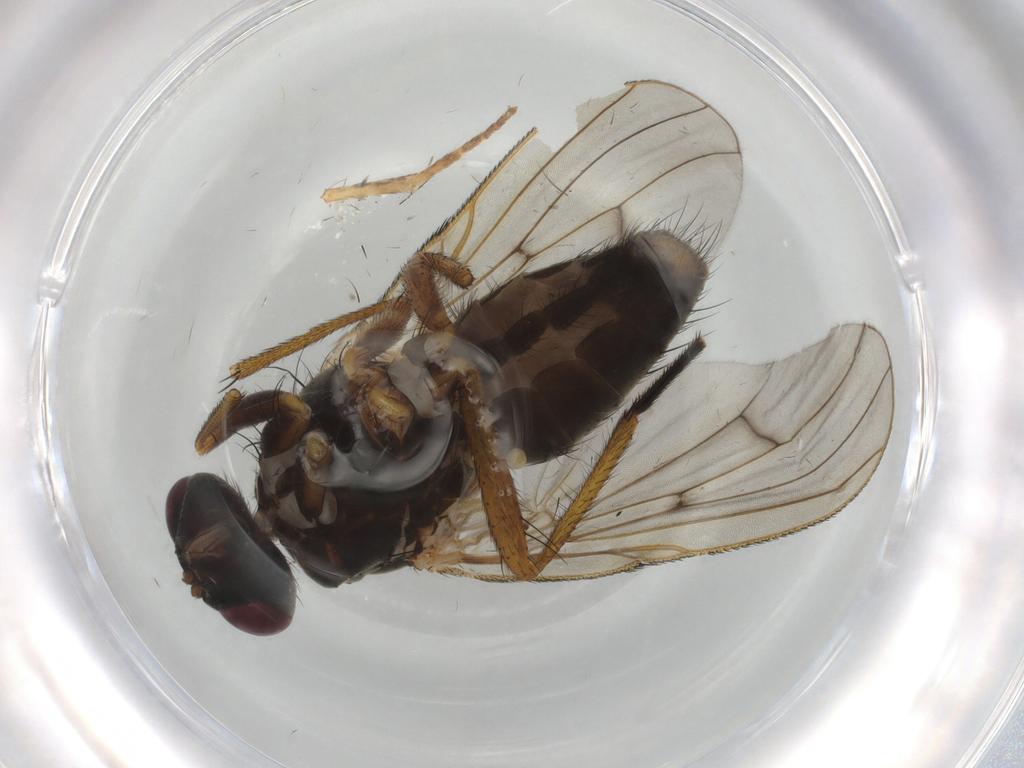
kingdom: Animalia
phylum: Arthropoda
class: Insecta
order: Diptera
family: Muscidae
